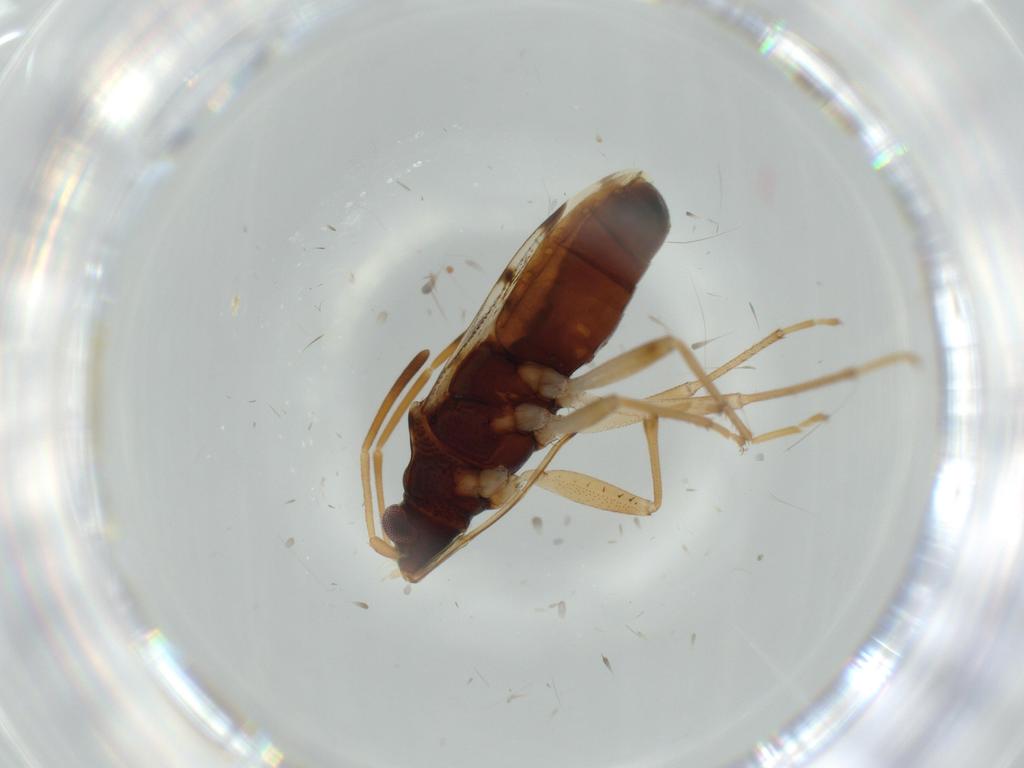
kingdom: Animalia
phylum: Arthropoda
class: Insecta
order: Hemiptera
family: Rhyparochromidae
